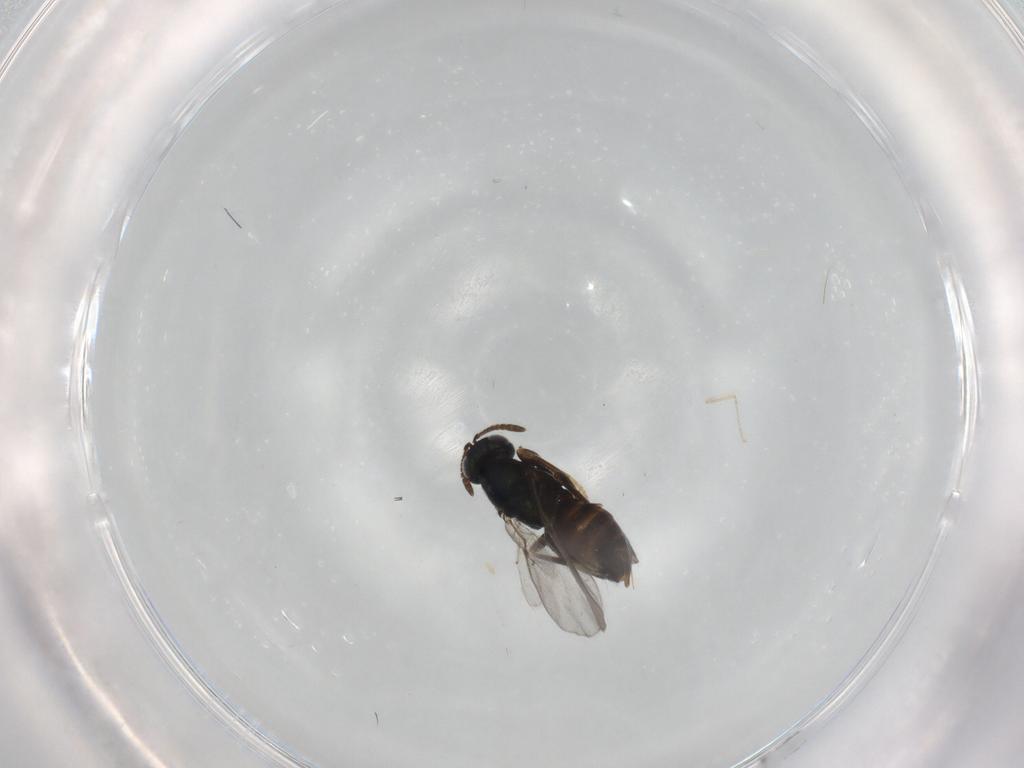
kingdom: Animalia
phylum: Arthropoda
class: Insecta
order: Hymenoptera
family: Encyrtidae
